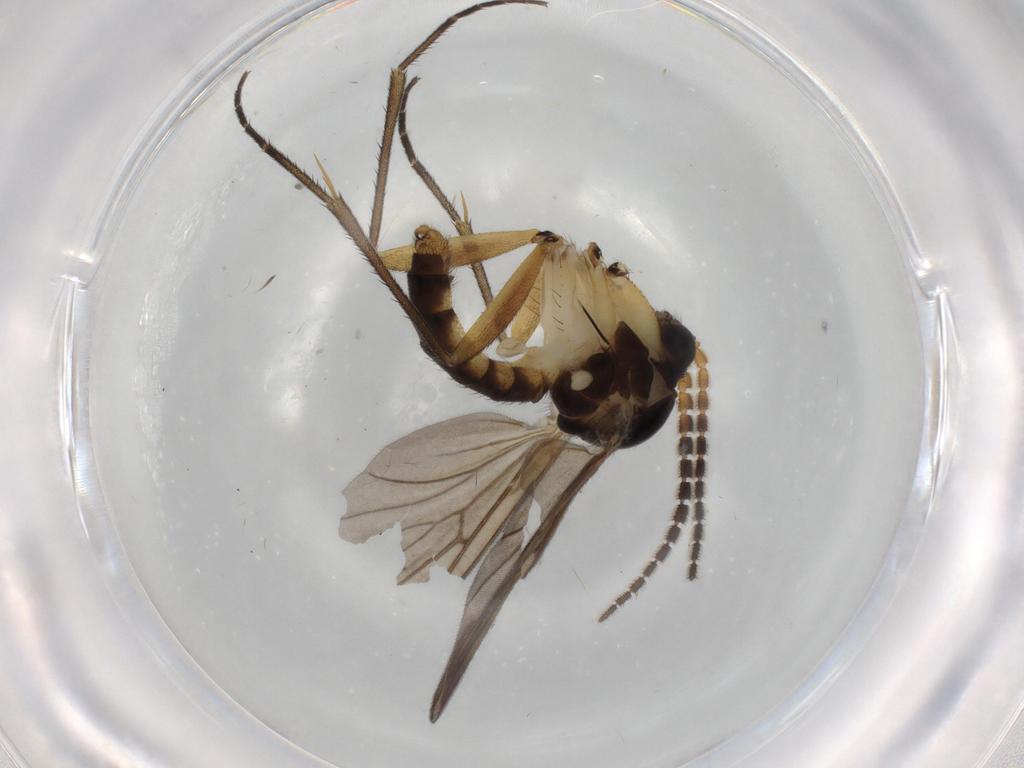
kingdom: Animalia
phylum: Arthropoda
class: Insecta
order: Diptera
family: Scatopsidae
